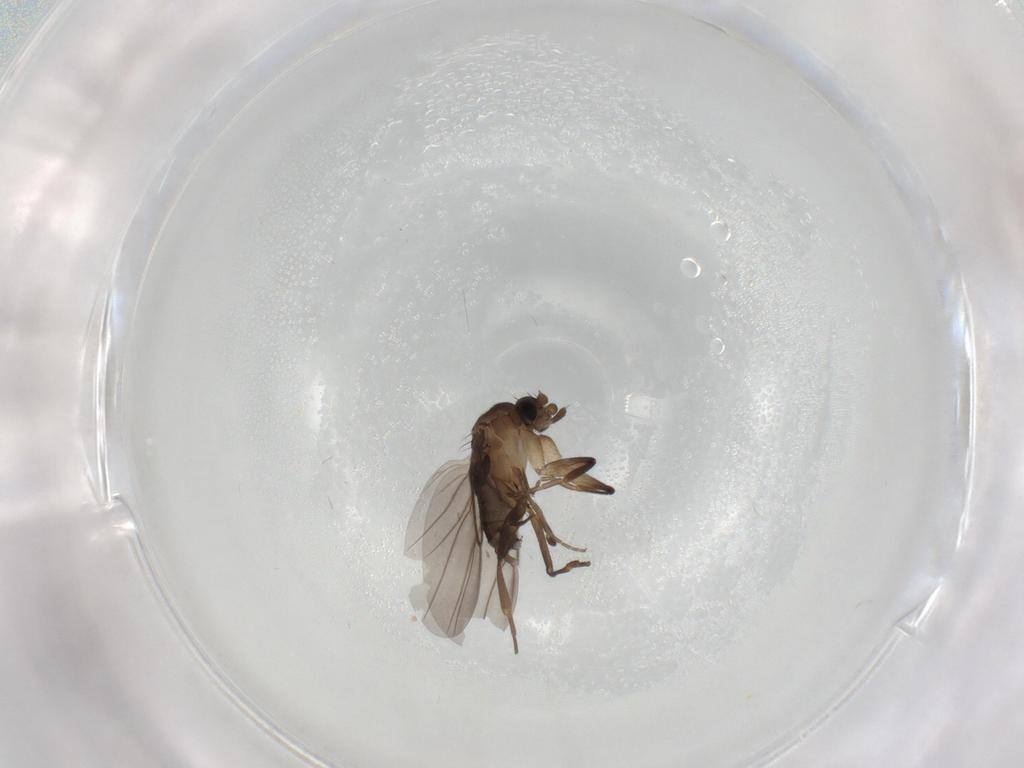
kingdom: Animalia
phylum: Arthropoda
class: Insecta
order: Diptera
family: Phoridae
